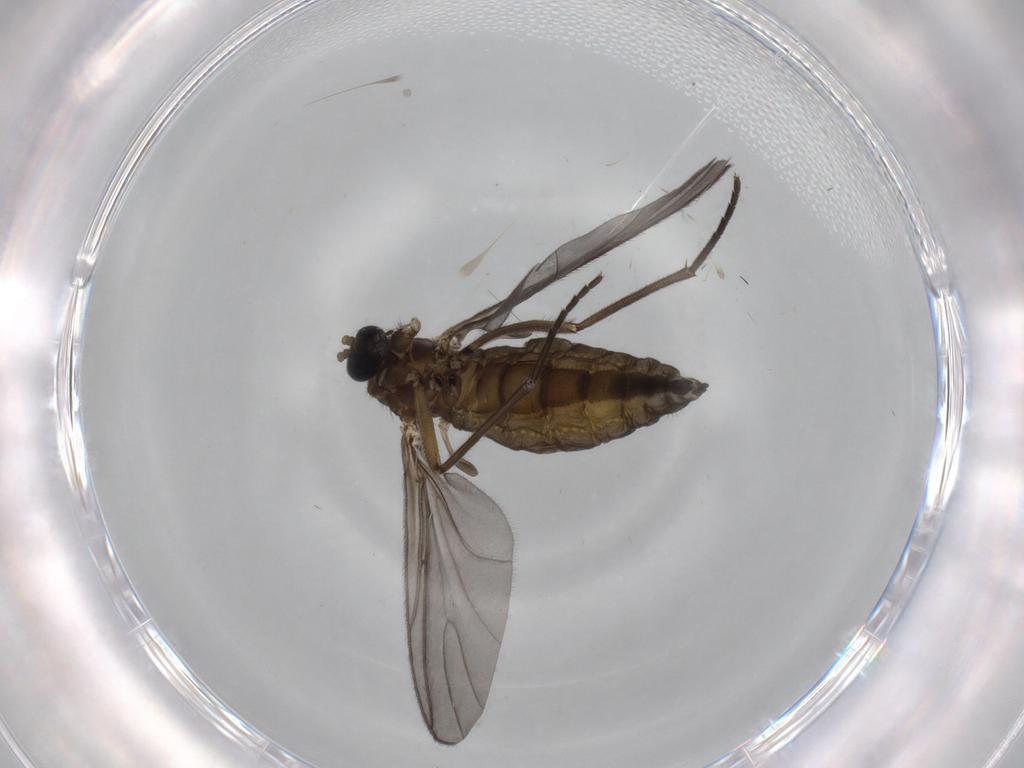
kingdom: Animalia
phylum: Arthropoda
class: Insecta
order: Diptera
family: Sciaridae
